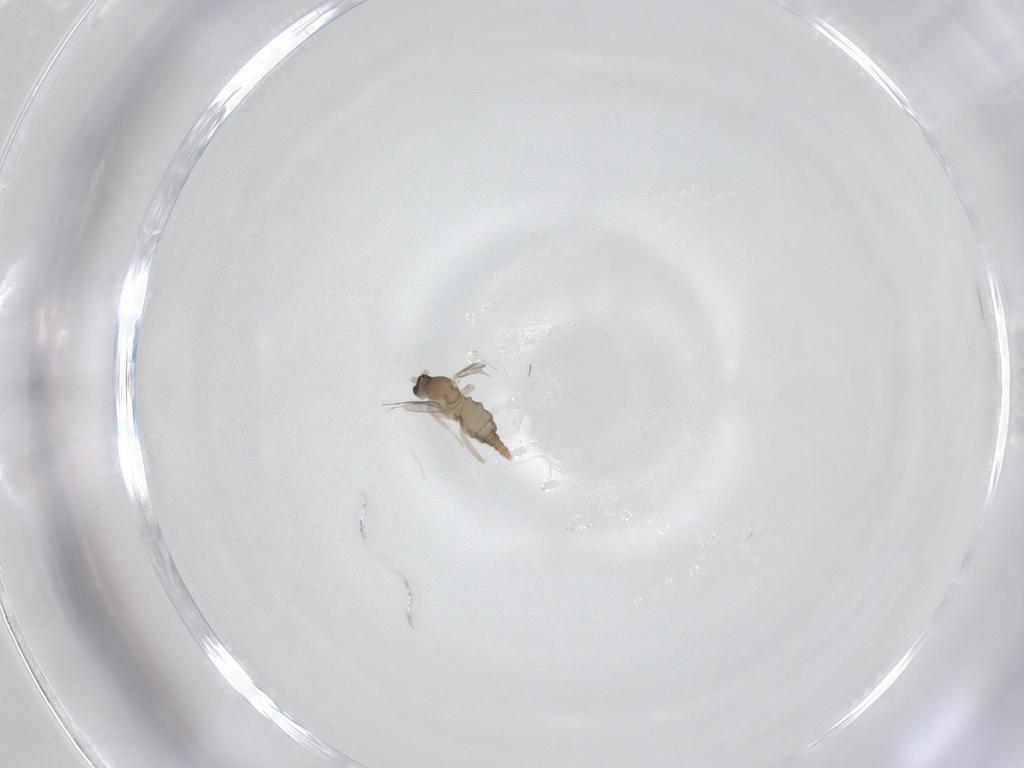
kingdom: Animalia
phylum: Arthropoda
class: Insecta
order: Diptera
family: Cecidomyiidae
